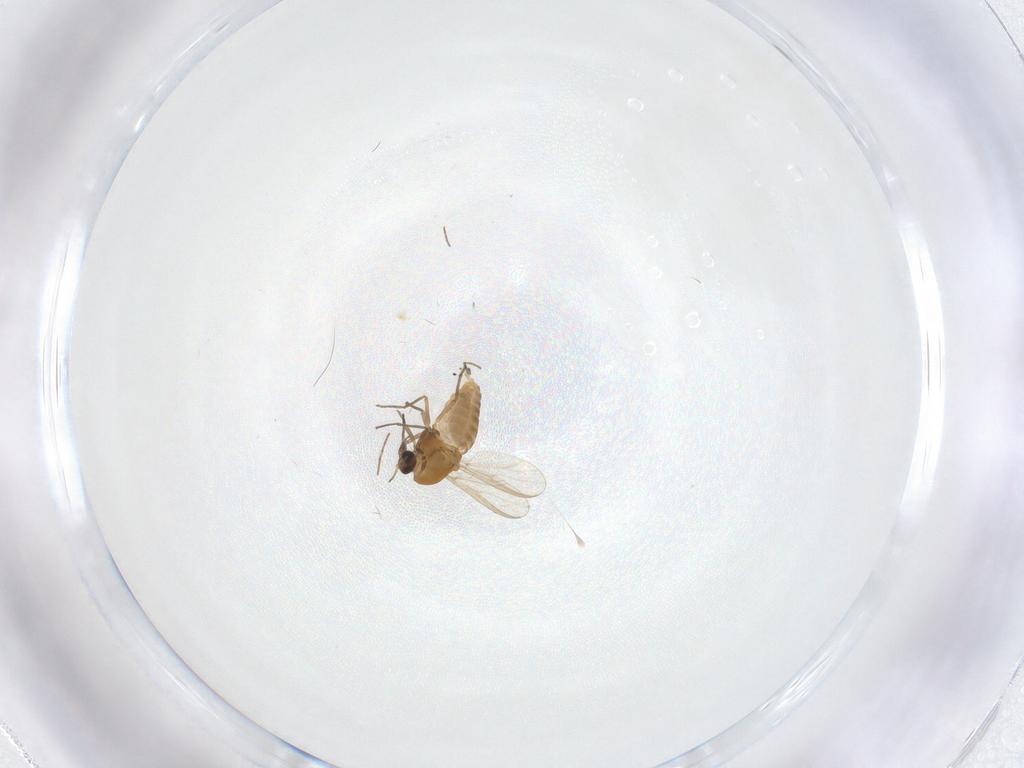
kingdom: Animalia
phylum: Arthropoda
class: Insecta
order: Diptera
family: Chironomidae
